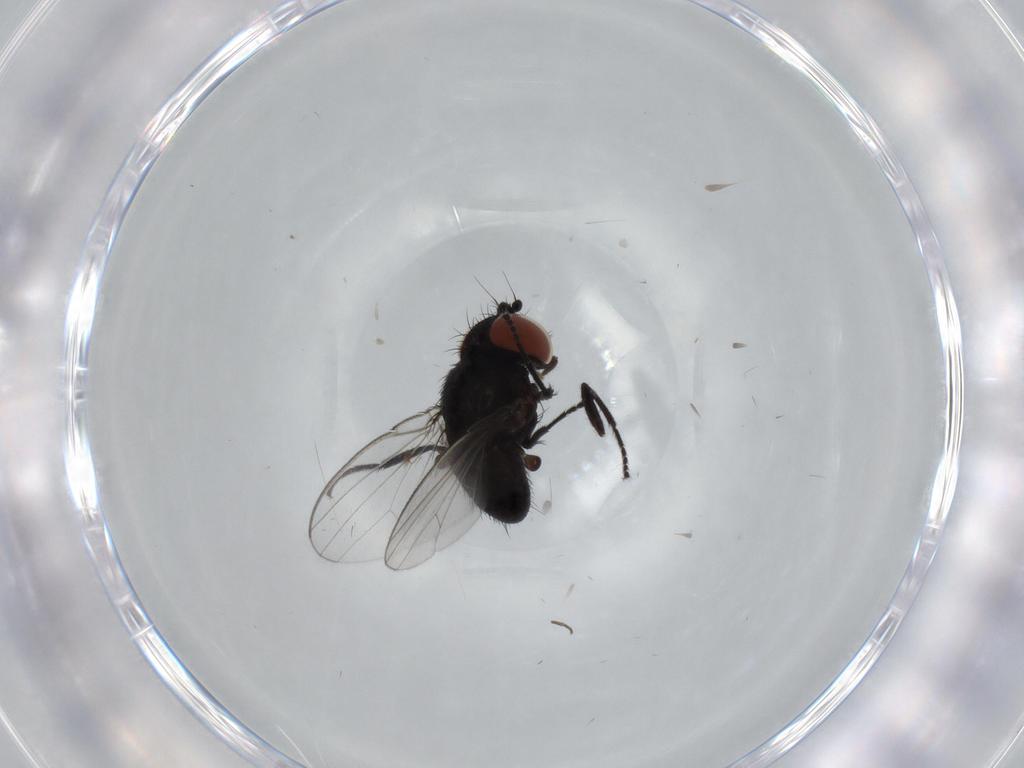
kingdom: Animalia
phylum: Arthropoda
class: Insecta
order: Diptera
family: Milichiidae
